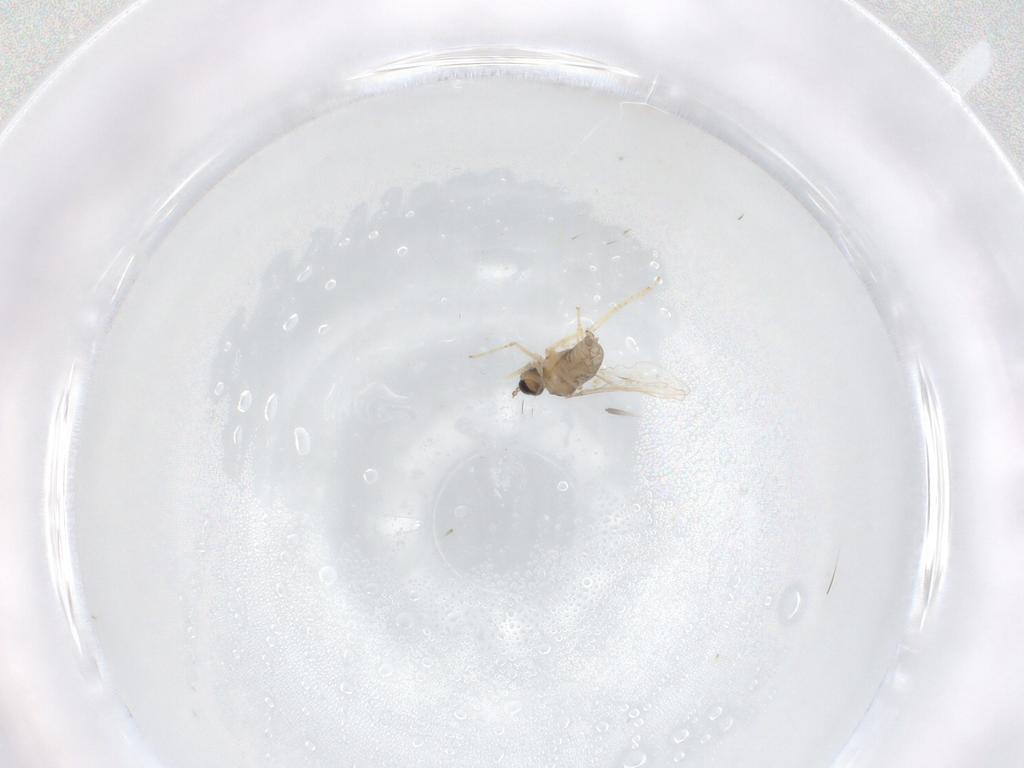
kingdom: Animalia
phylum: Arthropoda
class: Insecta
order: Diptera
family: Cecidomyiidae
